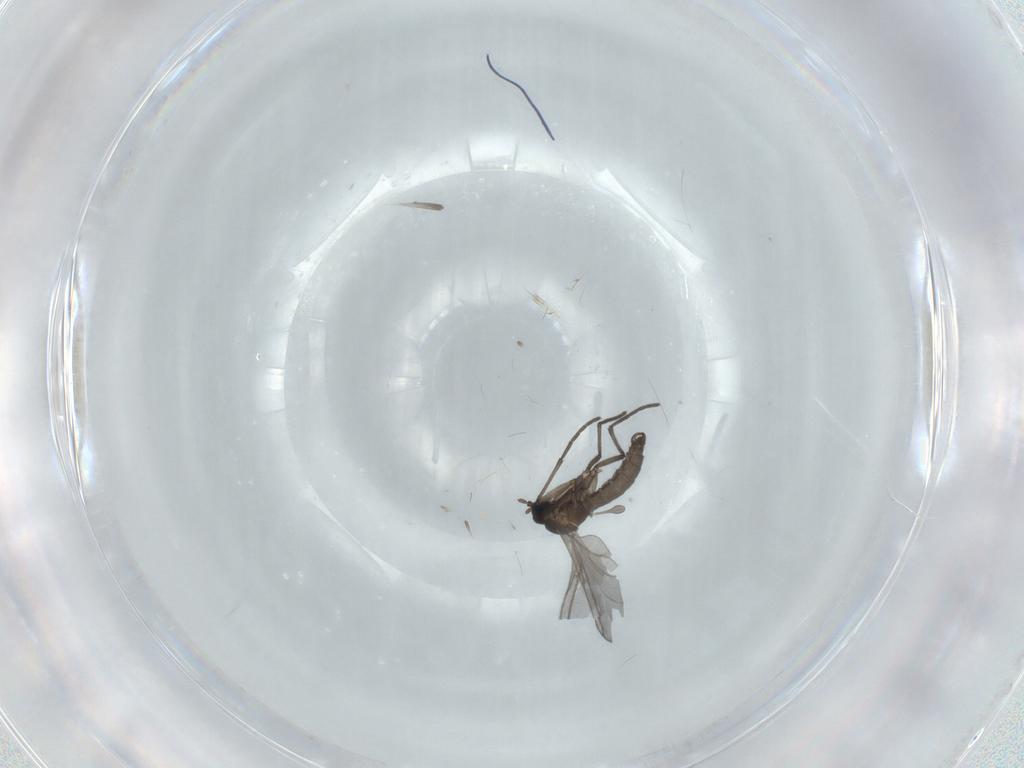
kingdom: Animalia
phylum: Arthropoda
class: Insecta
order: Diptera
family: Sciaridae
